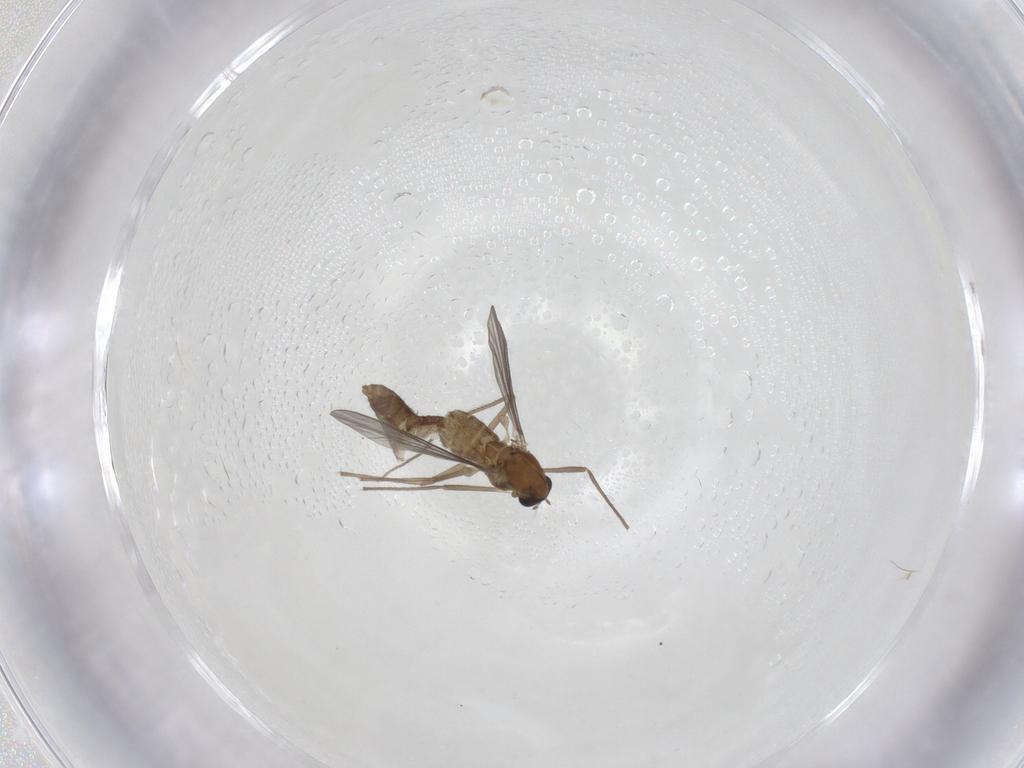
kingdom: Animalia
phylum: Arthropoda
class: Insecta
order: Diptera
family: Chironomidae
